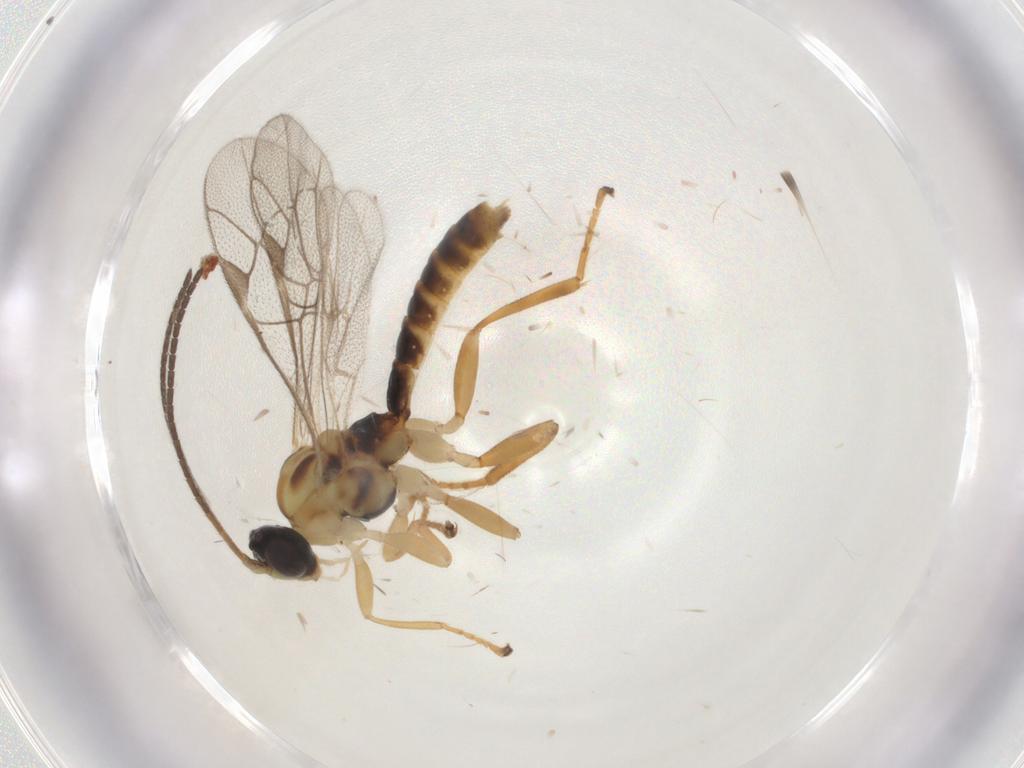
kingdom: Animalia
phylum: Arthropoda
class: Insecta
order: Hymenoptera
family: Ichneumonidae
